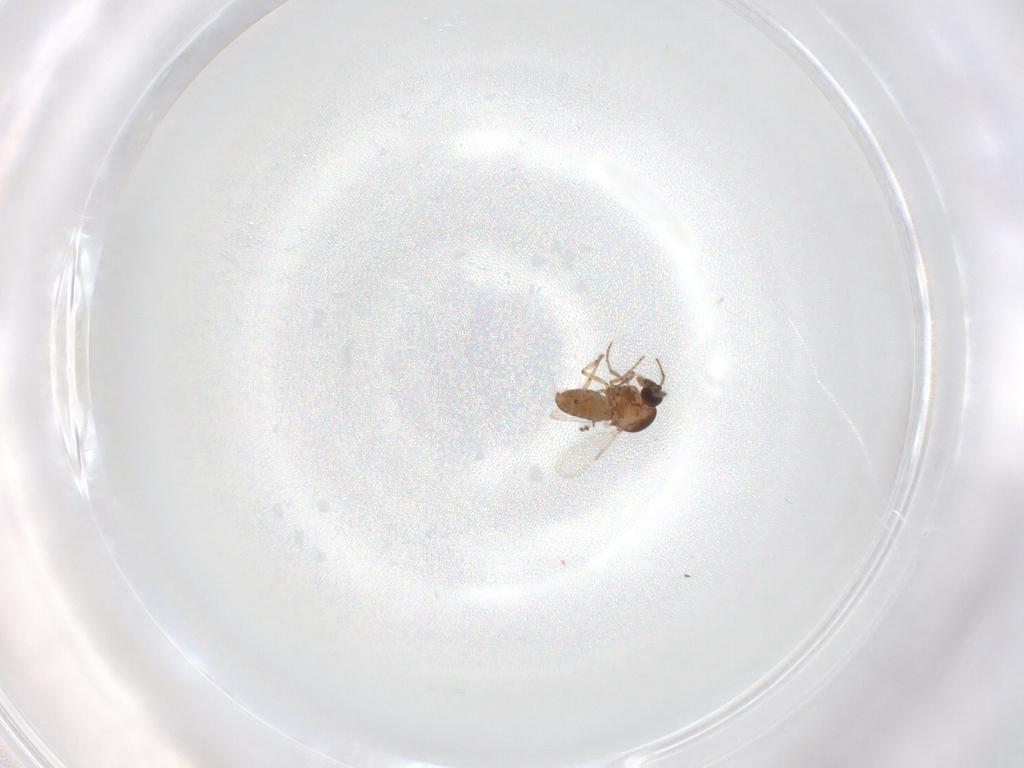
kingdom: Animalia
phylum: Arthropoda
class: Insecta
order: Diptera
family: Ceratopogonidae
